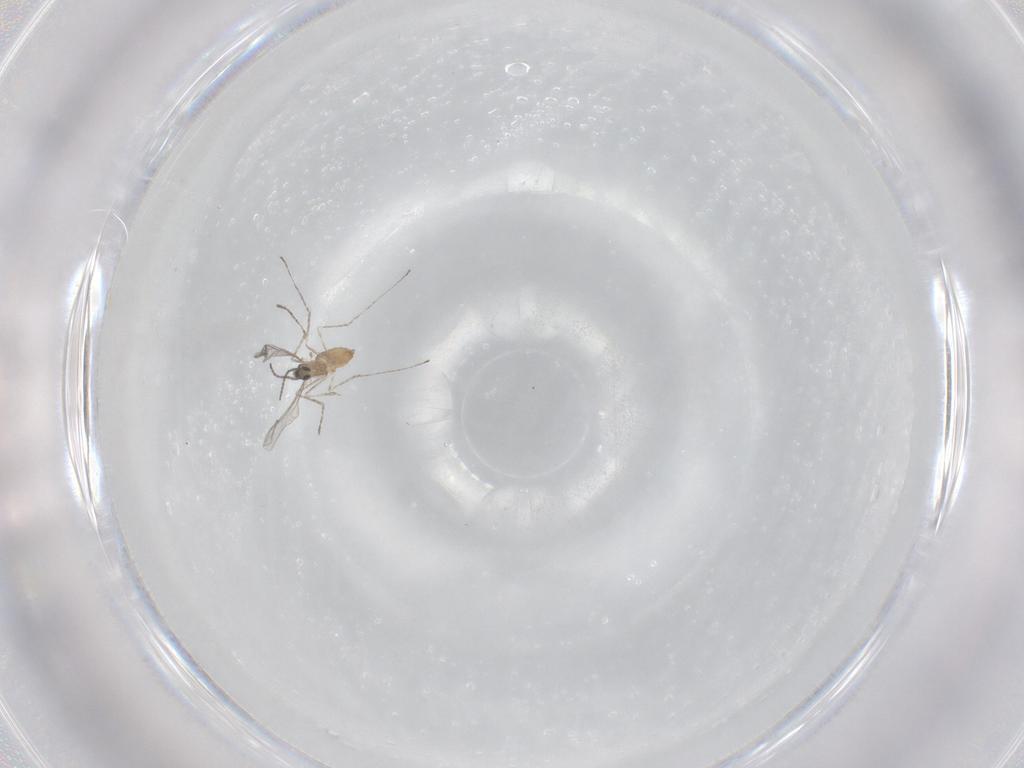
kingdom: Animalia
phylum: Arthropoda
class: Insecta
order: Diptera
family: Cecidomyiidae
